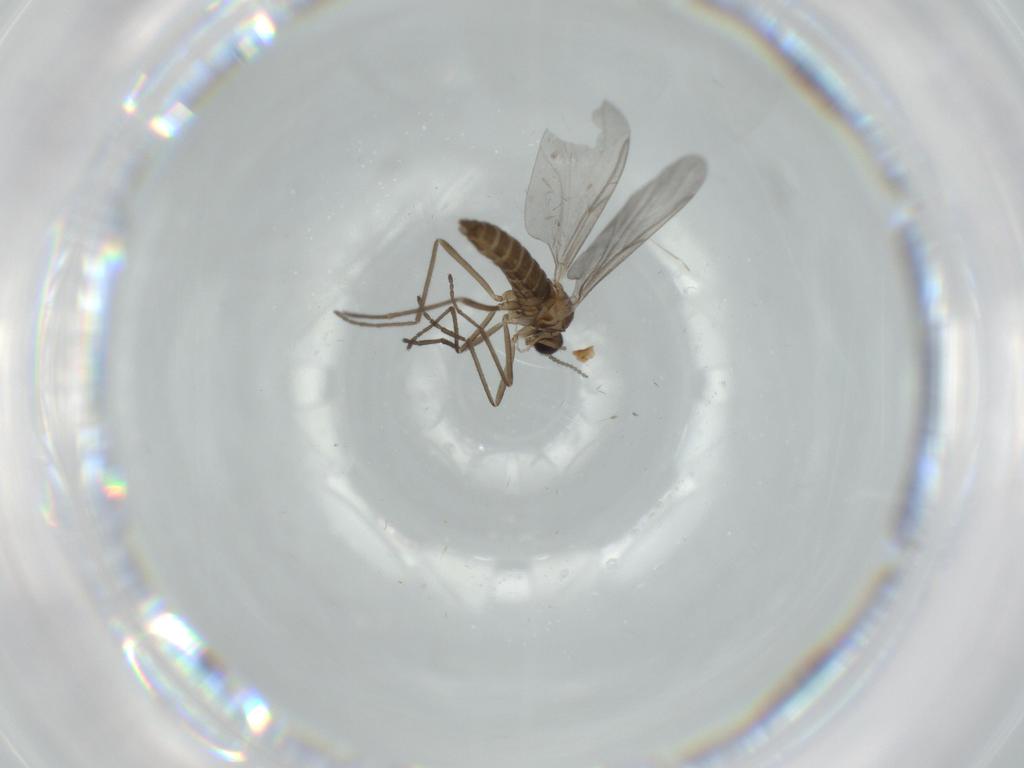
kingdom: Animalia
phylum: Arthropoda
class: Insecta
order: Diptera
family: Cecidomyiidae
